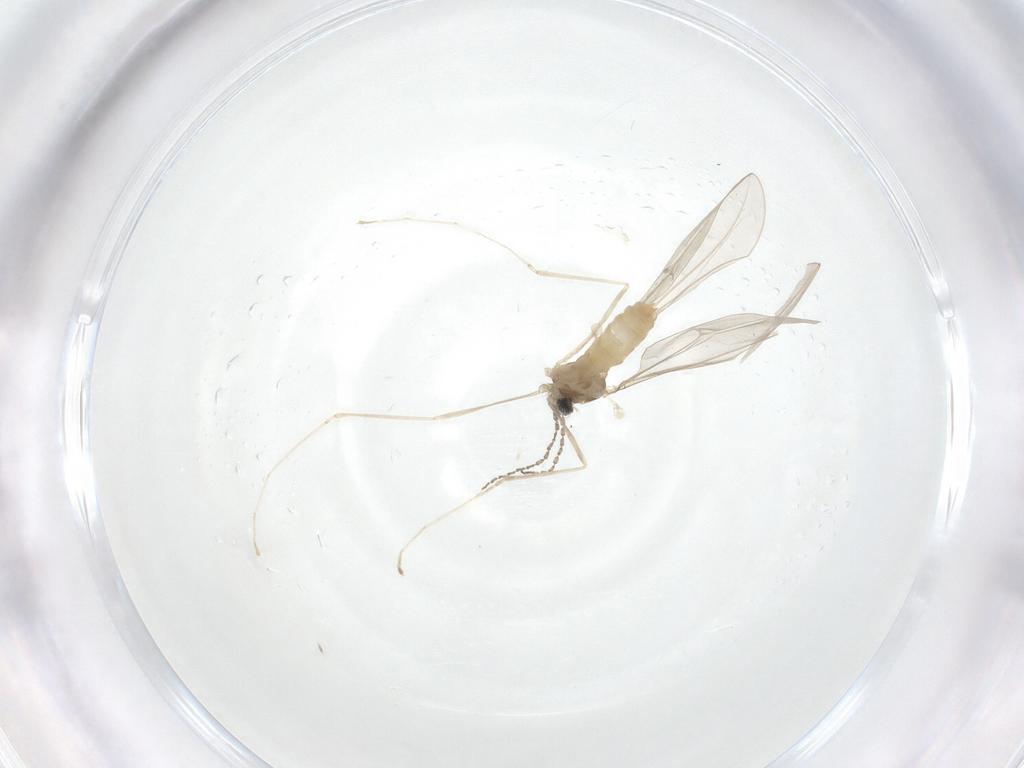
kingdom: Animalia
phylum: Arthropoda
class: Insecta
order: Diptera
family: Cecidomyiidae
